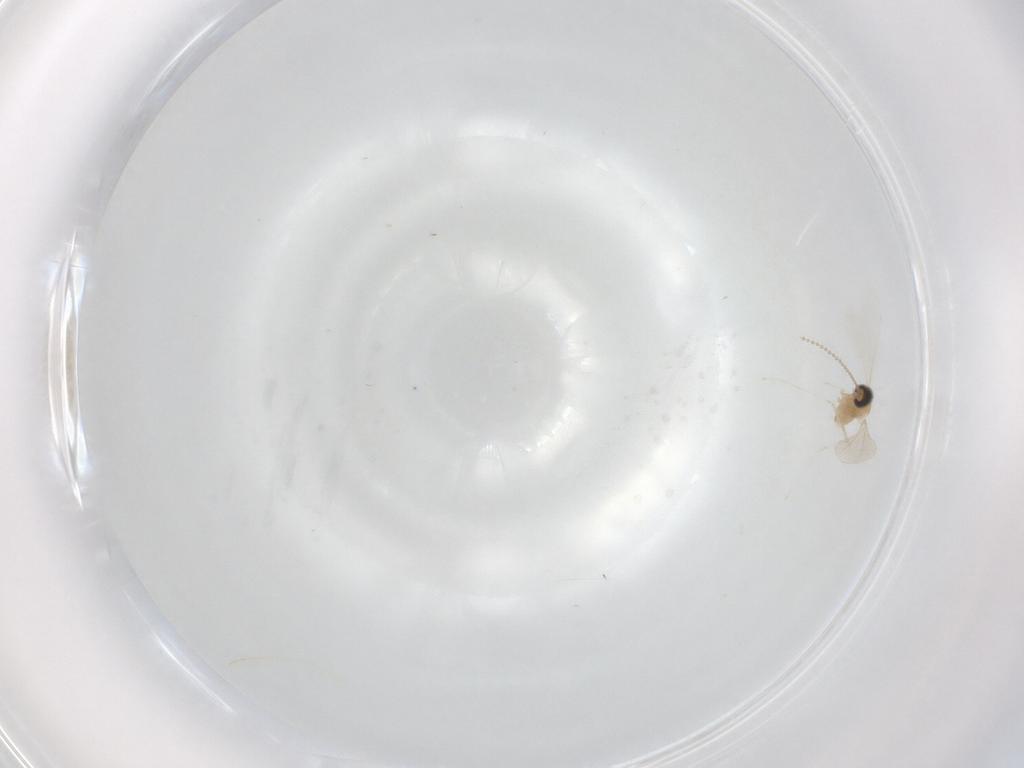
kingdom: Animalia
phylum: Arthropoda
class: Insecta
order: Diptera
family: Cecidomyiidae
